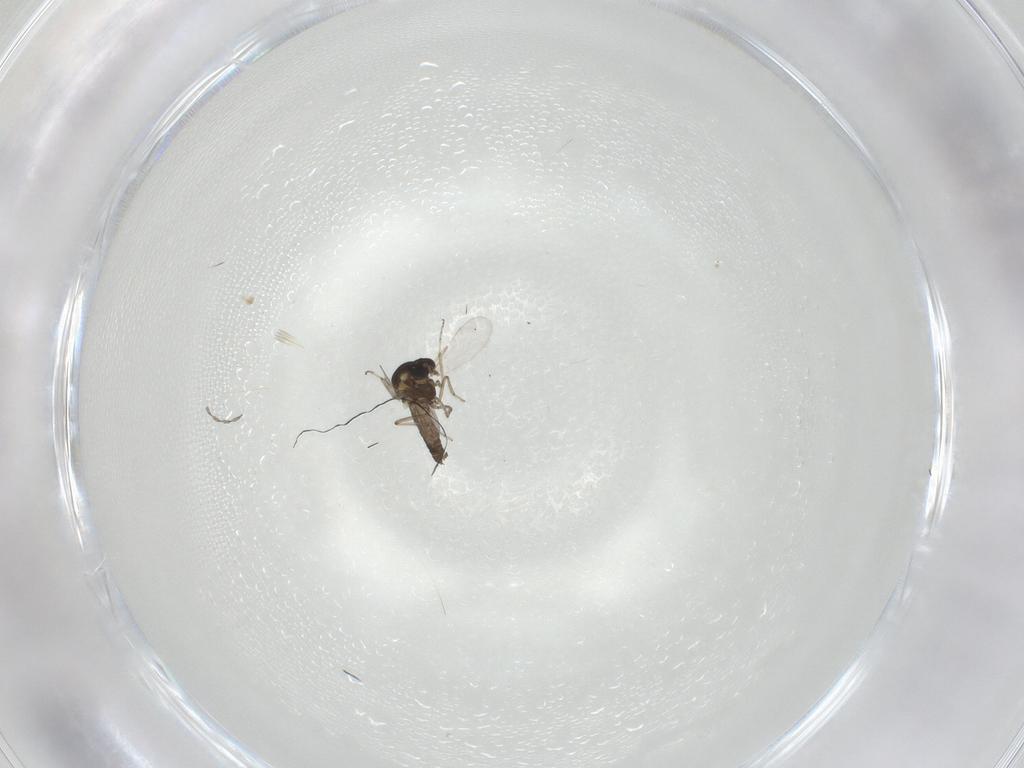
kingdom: Animalia
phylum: Arthropoda
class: Insecta
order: Diptera
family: Ceratopogonidae
